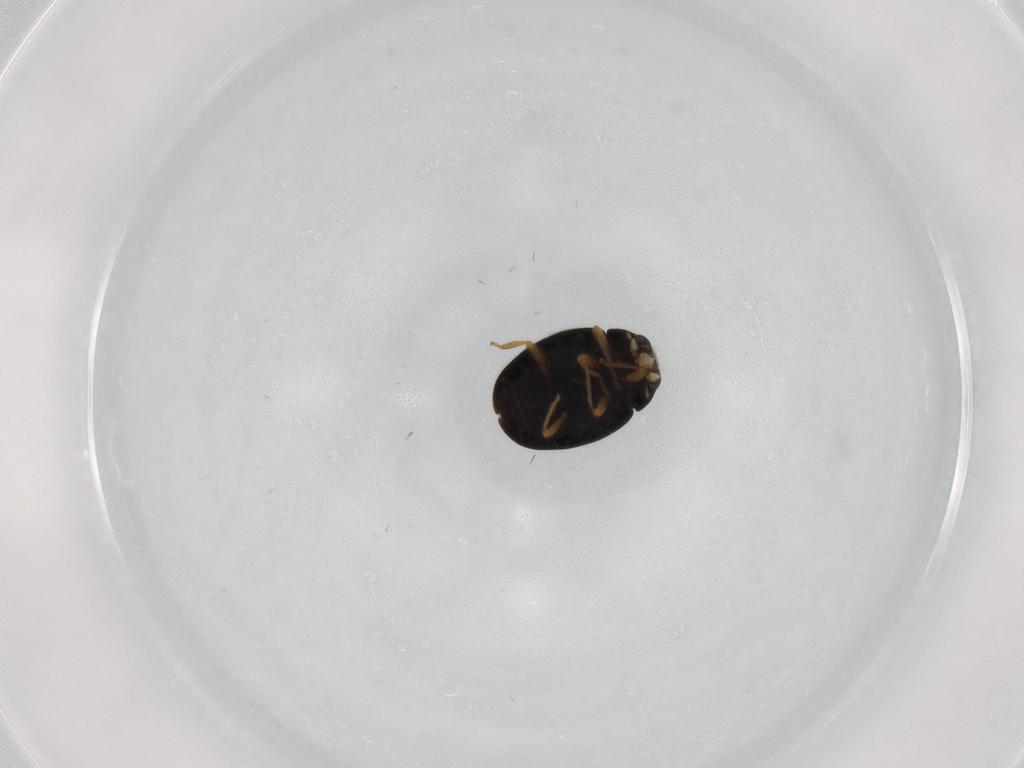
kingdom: Animalia
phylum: Arthropoda
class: Insecta
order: Coleoptera
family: Coccinellidae
